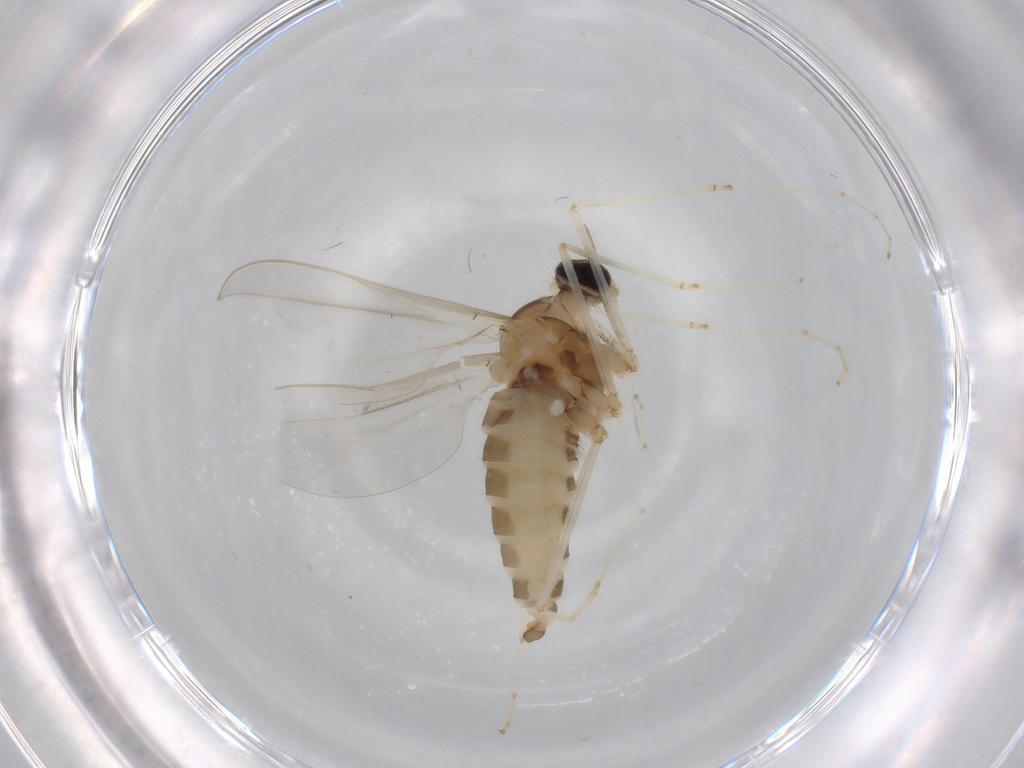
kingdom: Animalia
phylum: Arthropoda
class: Insecta
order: Diptera
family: Cecidomyiidae
